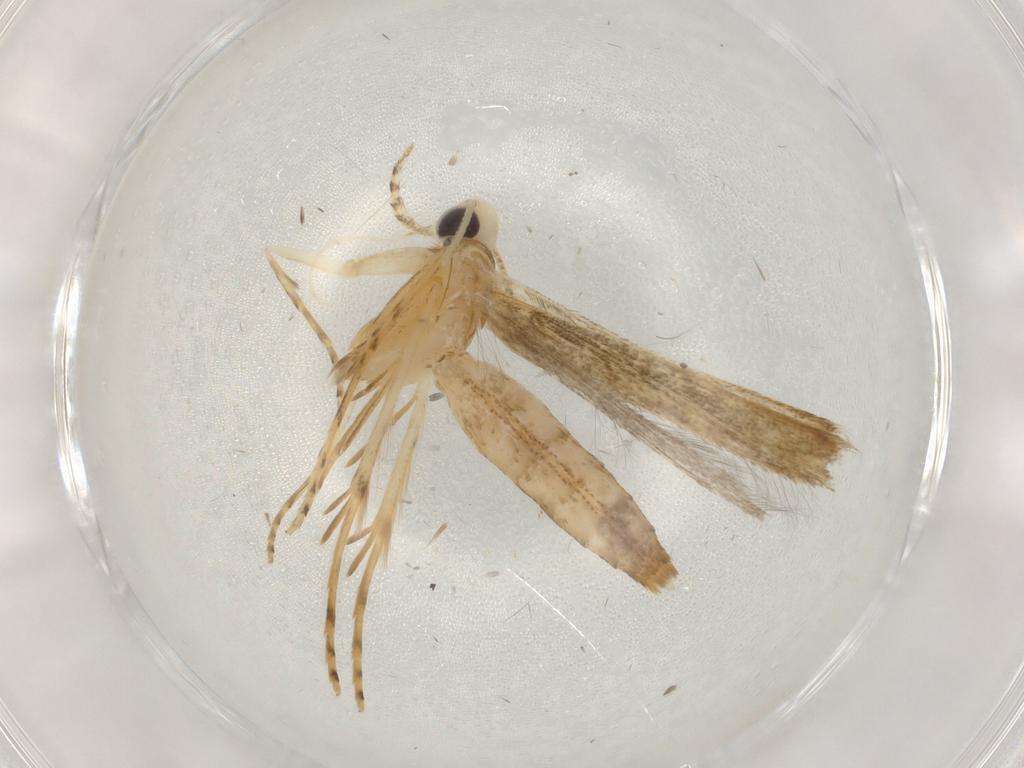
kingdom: Animalia
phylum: Arthropoda
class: Insecta
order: Lepidoptera
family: Batrachedridae
